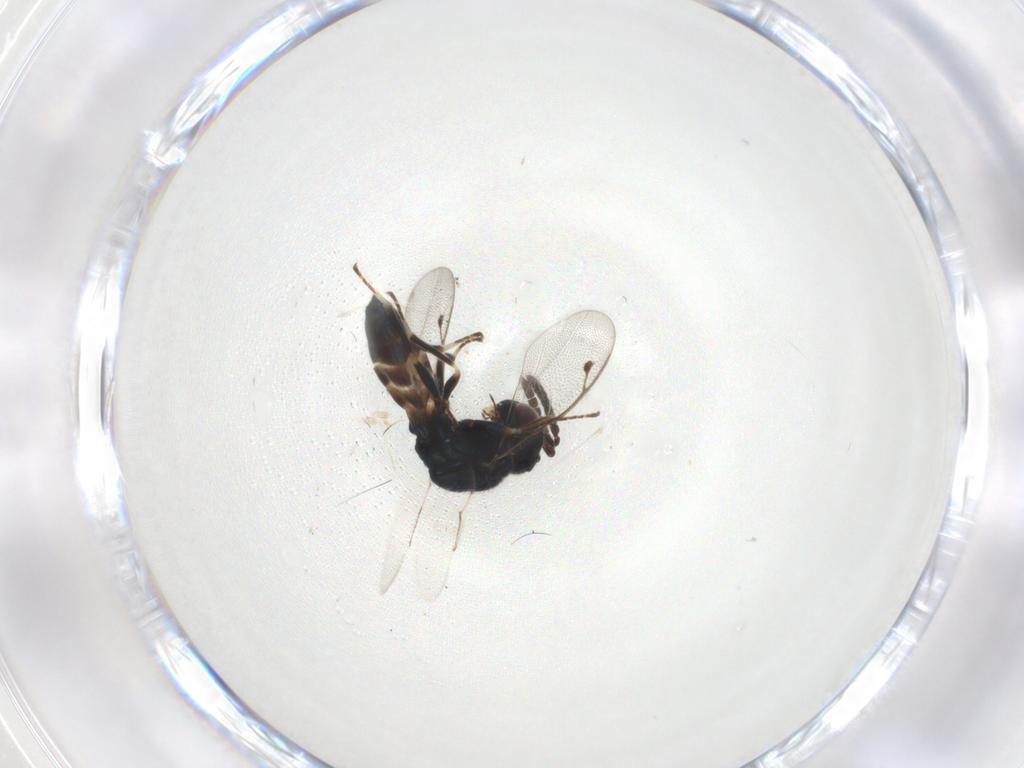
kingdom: Animalia
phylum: Arthropoda
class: Insecta
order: Hymenoptera
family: Pteromalidae
